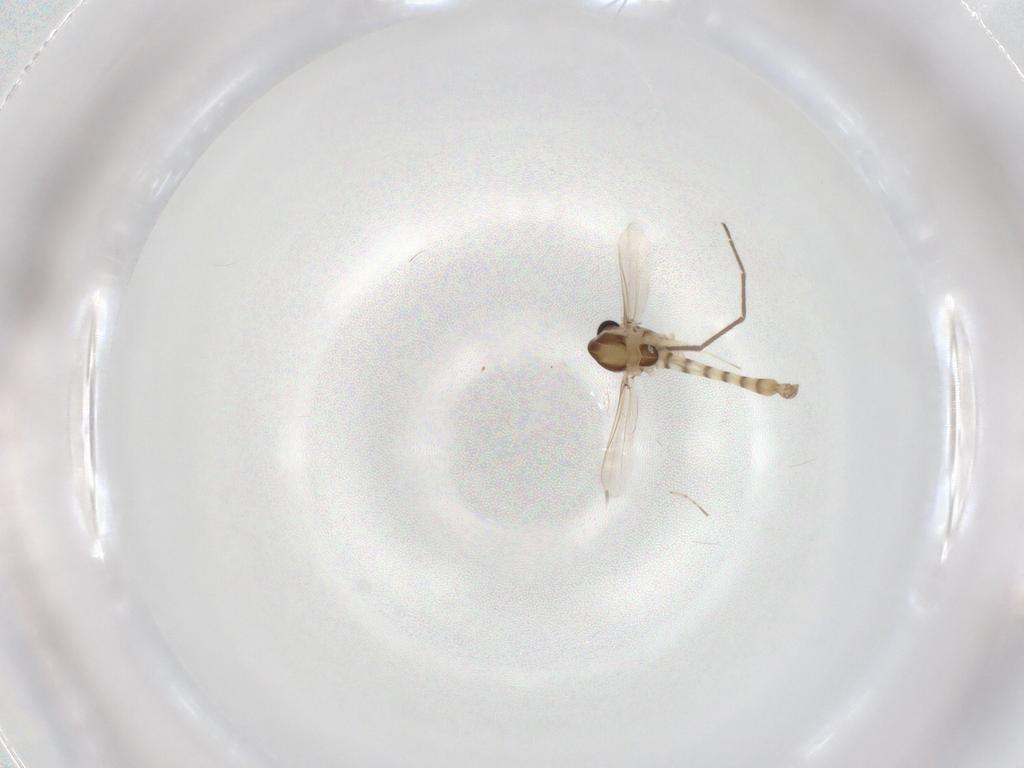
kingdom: Animalia
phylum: Arthropoda
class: Insecta
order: Diptera
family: Chironomidae
